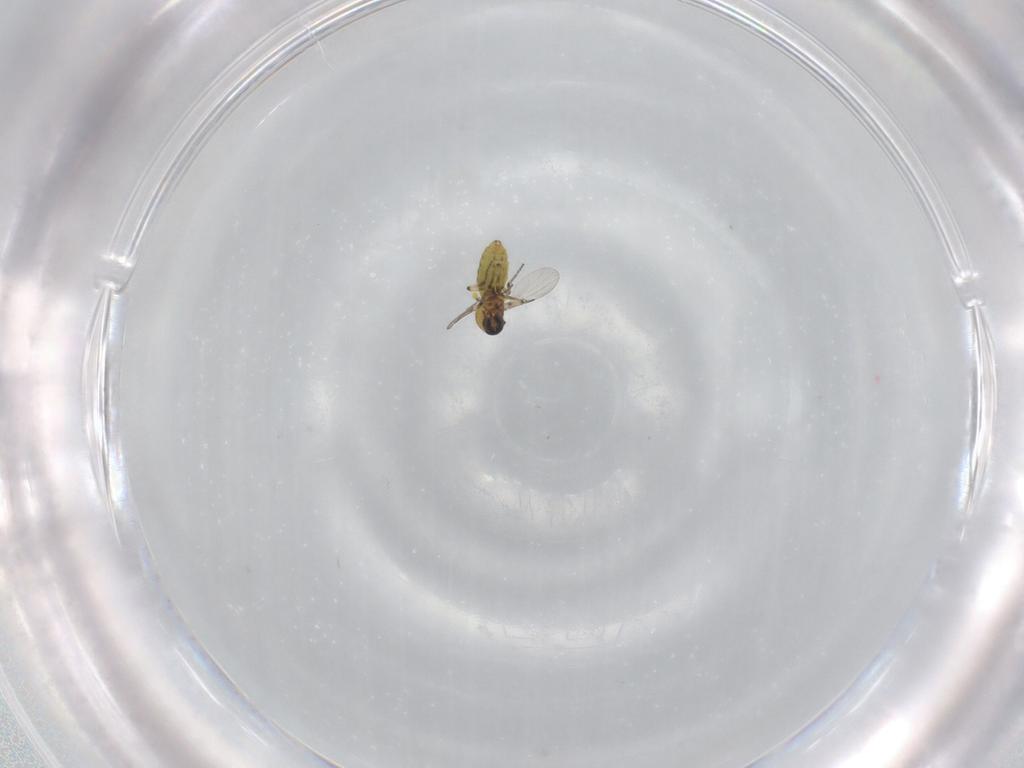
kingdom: Animalia
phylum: Arthropoda
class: Insecta
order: Diptera
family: Ceratopogonidae
